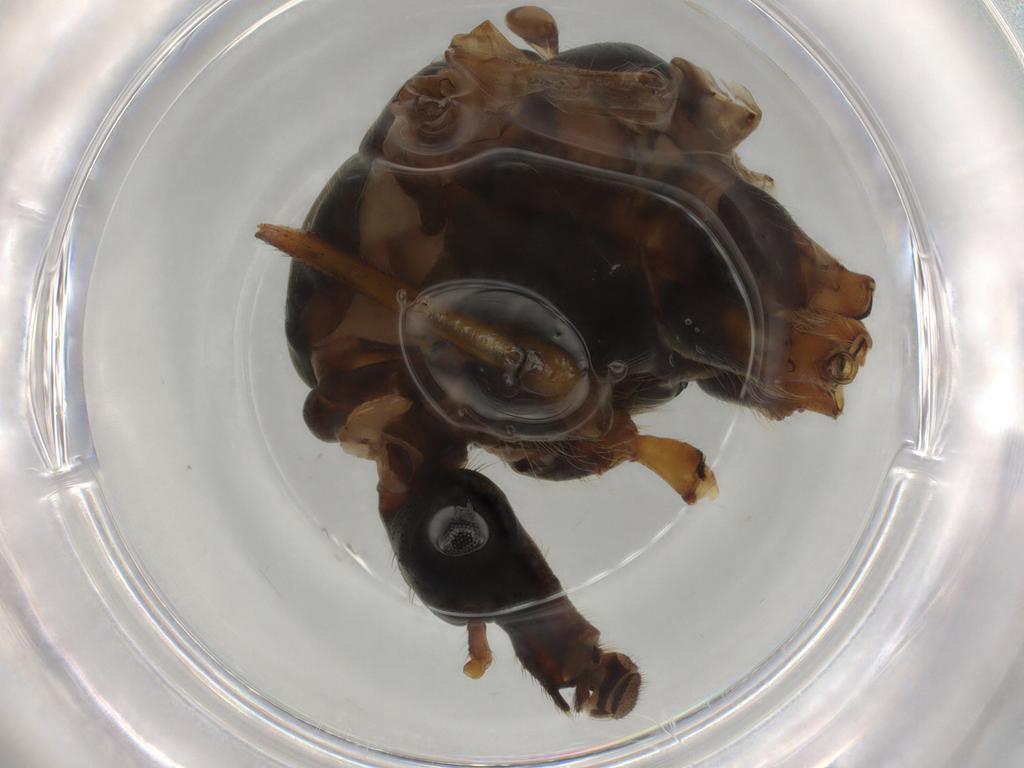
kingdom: Animalia
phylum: Arthropoda
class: Insecta
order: Diptera
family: Tipulidae
